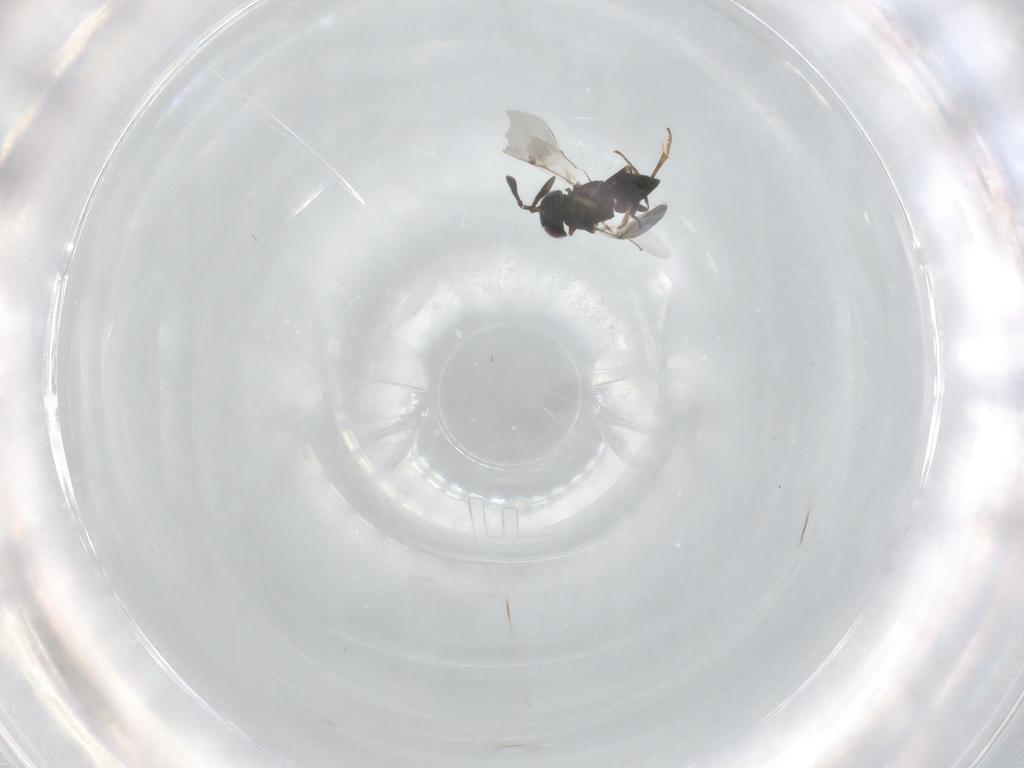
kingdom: Animalia
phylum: Arthropoda
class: Insecta
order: Hymenoptera
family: Encyrtidae
